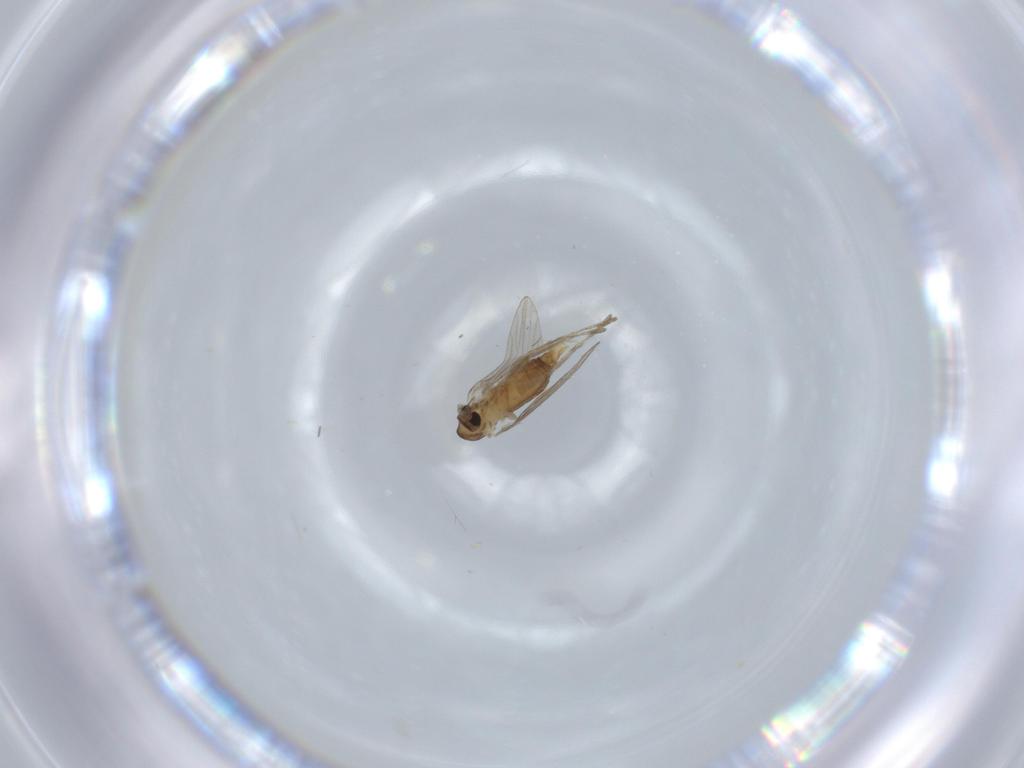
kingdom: Animalia
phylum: Arthropoda
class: Insecta
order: Diptera
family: Psychodidae
